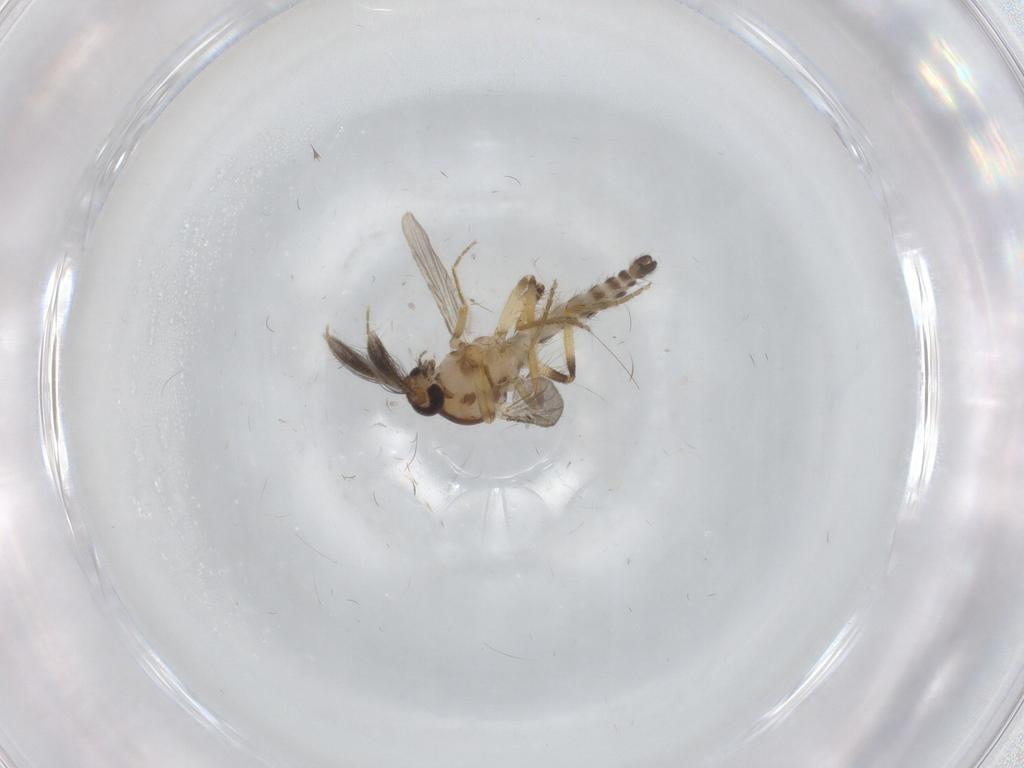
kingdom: Animalia
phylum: Arthropoda
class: Insecta
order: Diptera
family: Ceratopogonidae
